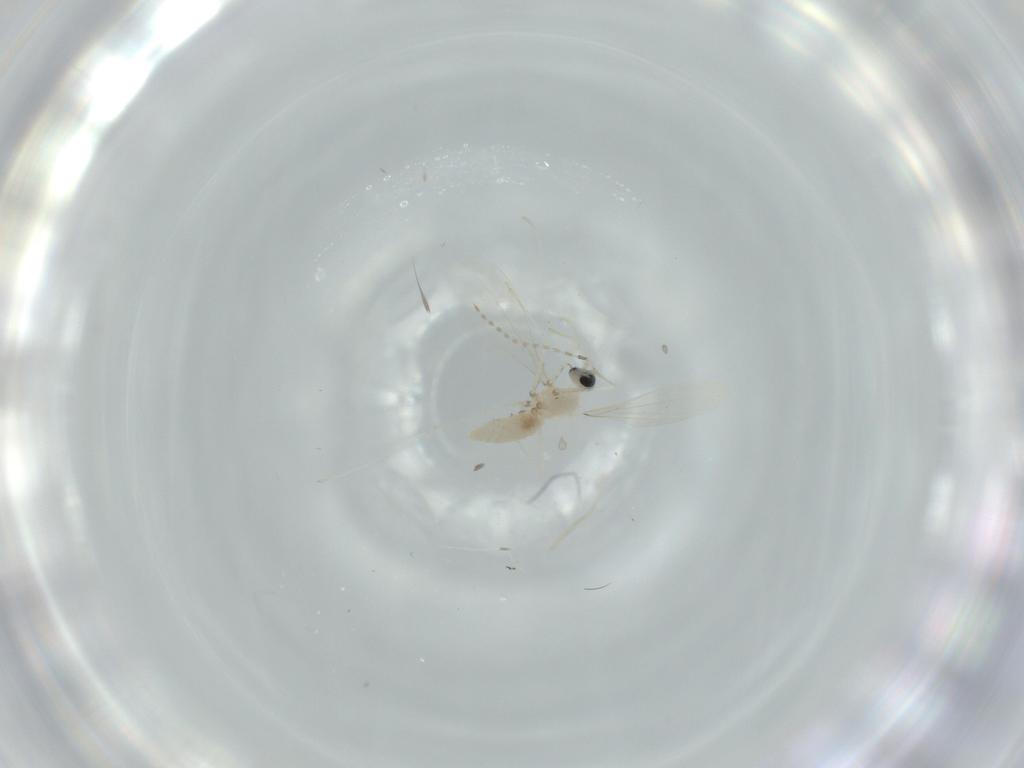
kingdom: Animalia
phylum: Arthropoda
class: Insecta
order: Diptera
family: Cecidomyiidae
